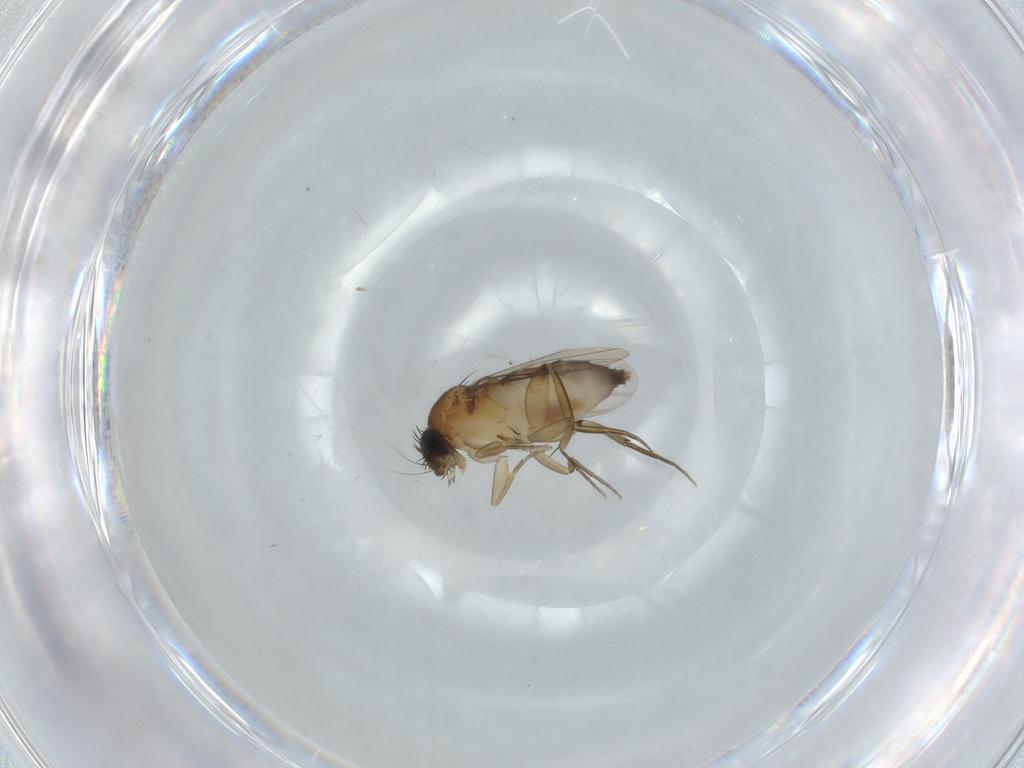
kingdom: Animalia
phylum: Arthropoda
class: Insecta
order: Diptera
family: Phoridae
